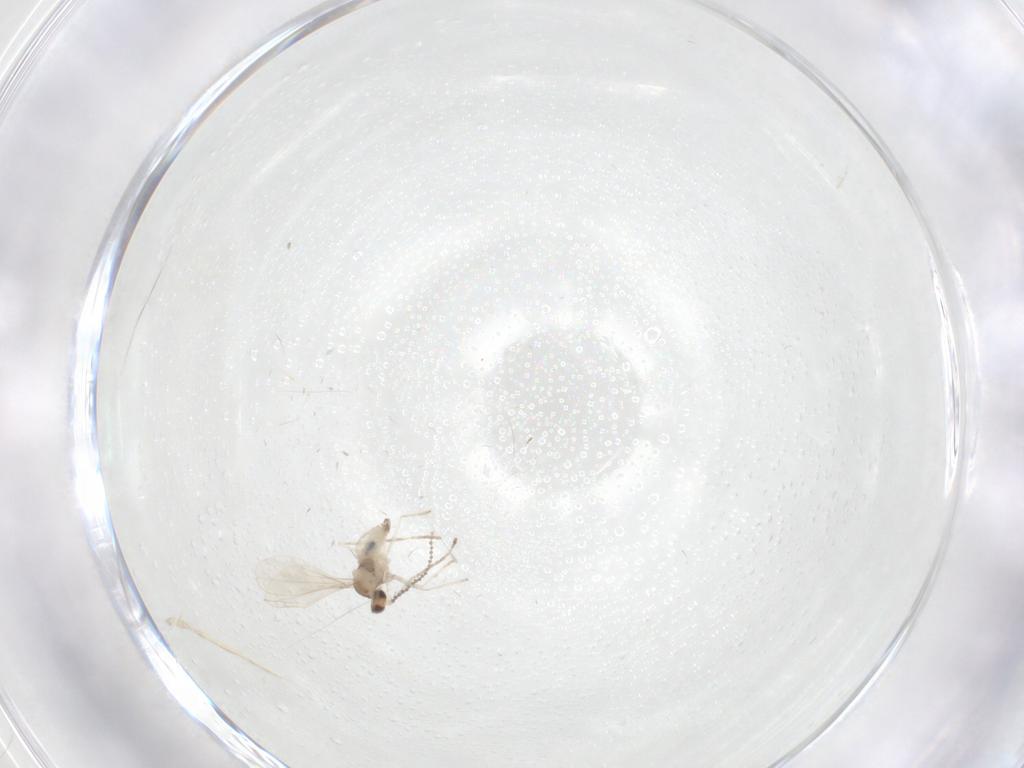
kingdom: Animalia
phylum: Arthropoda
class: Insecta
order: Diptera
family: Cecidomyiidae
